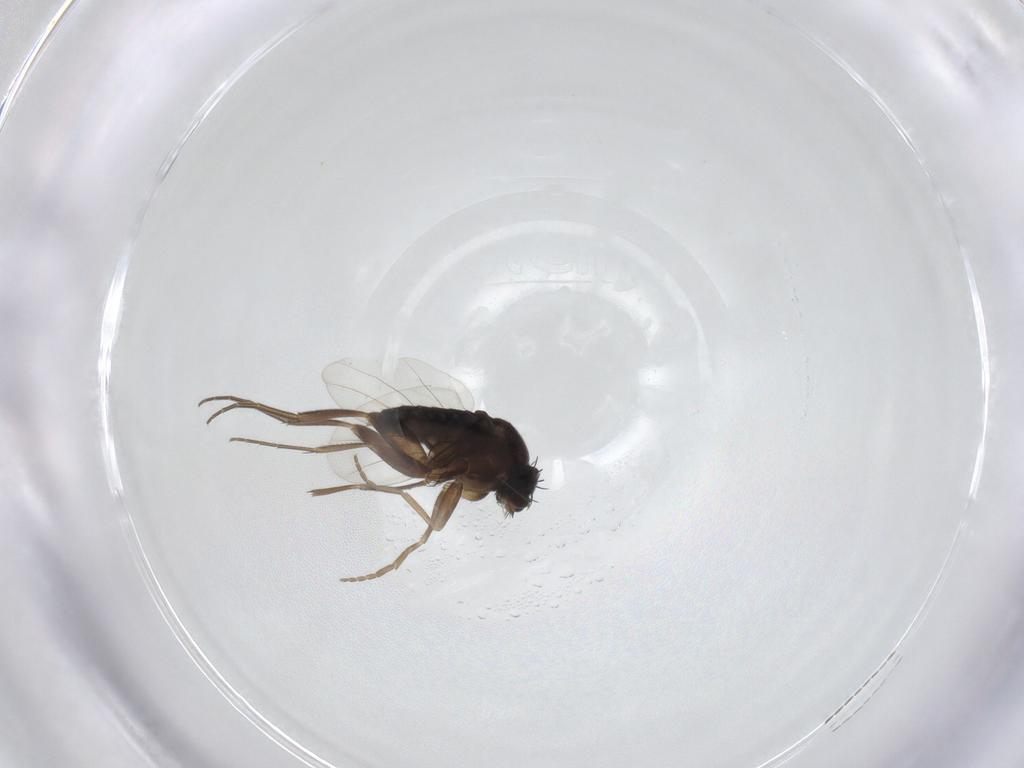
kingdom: Animalia
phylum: Arthropoda
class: Insecta
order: Diptera
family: Phoridae
